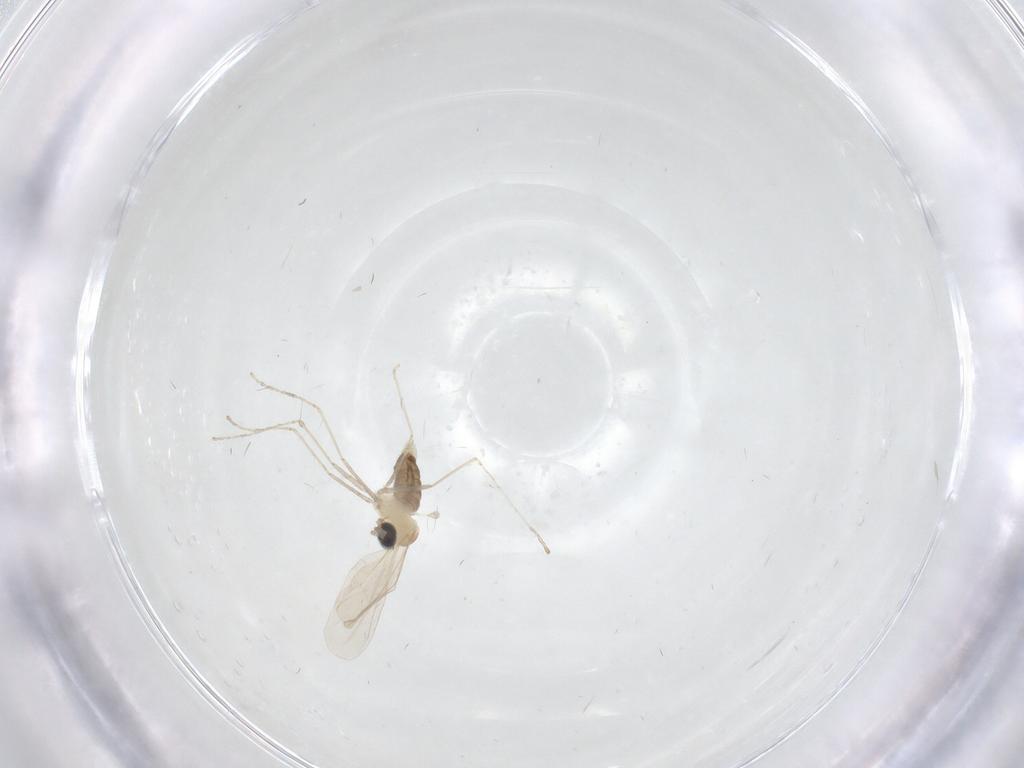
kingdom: Animalia
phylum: Arthropoda
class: Insecta
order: Diptera
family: Cecidomyiidae
